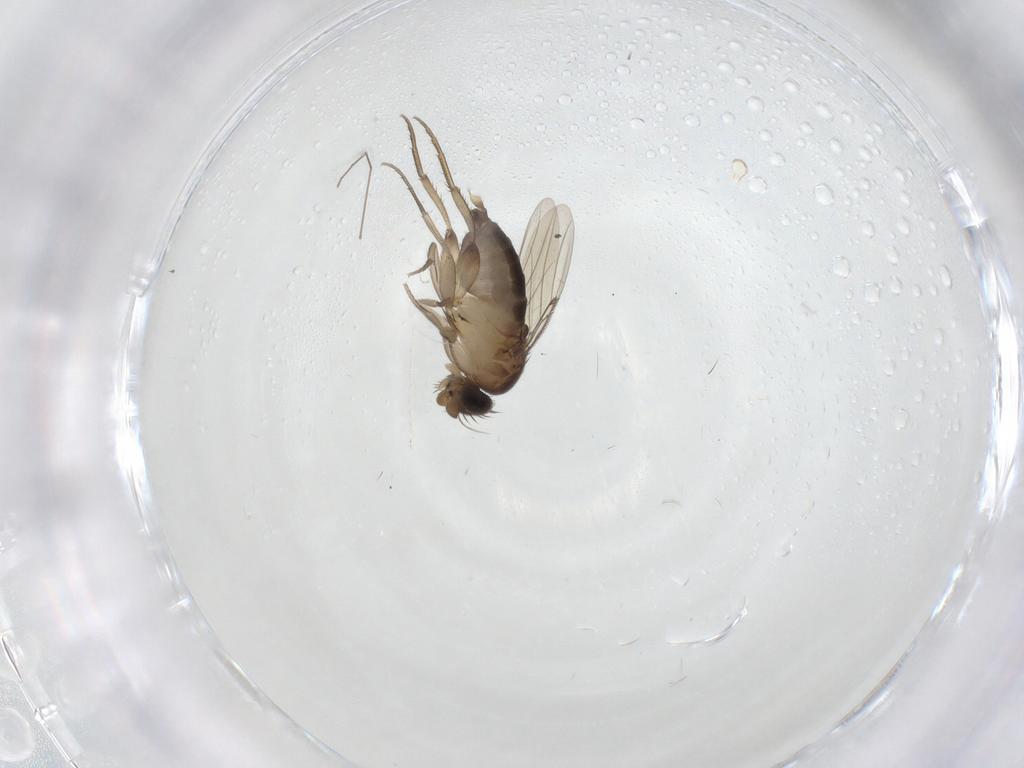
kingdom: Animalia
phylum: Arthropoda
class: Insecta
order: Diptera
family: Phoridae
